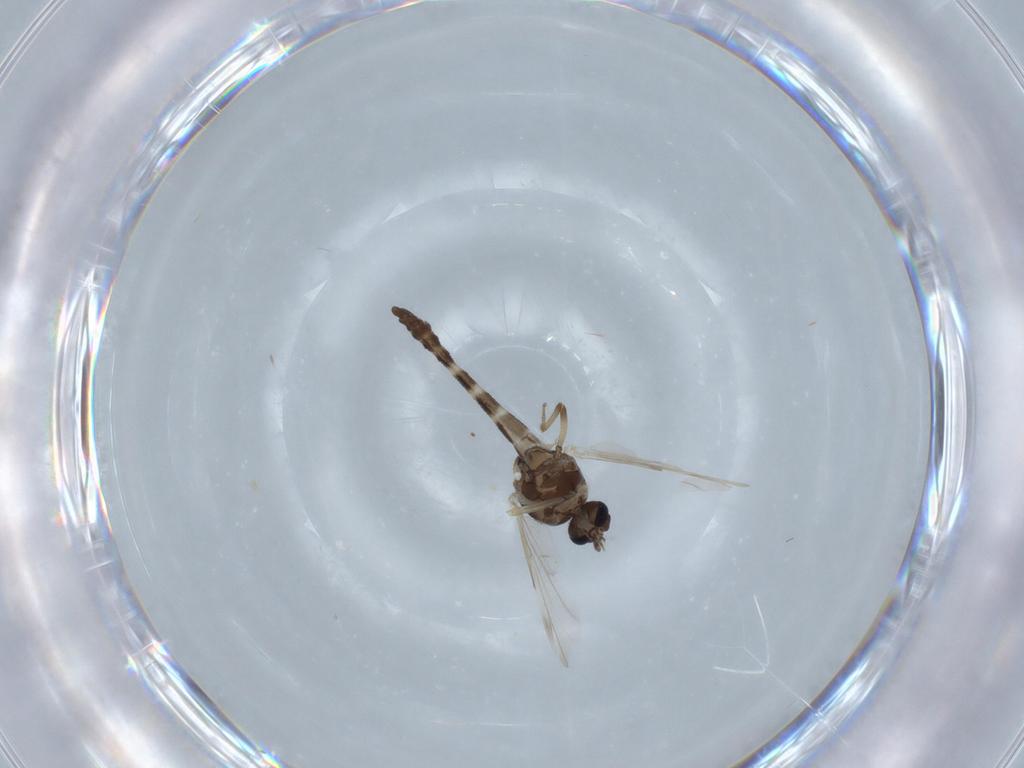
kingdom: Animalia
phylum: Arthropoda
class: Insecta
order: Diptera
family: Ceratopogonidae
